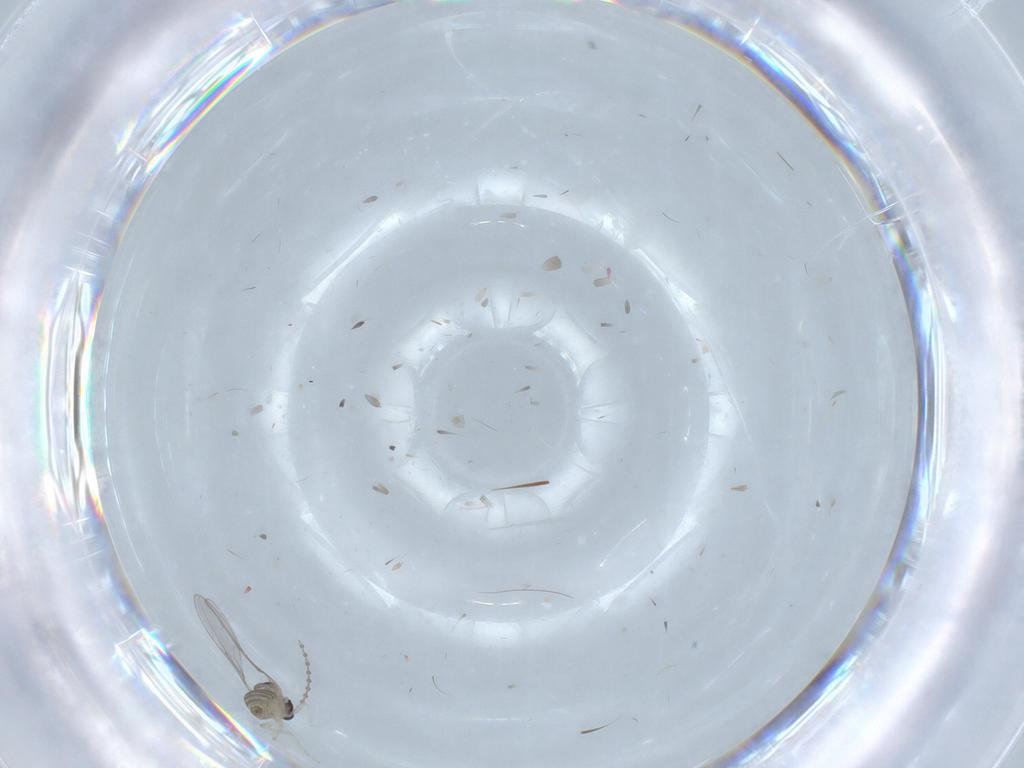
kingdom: Animalia
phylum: Arthropoda
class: Insecta
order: Diptera
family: Cecidomyiidae
